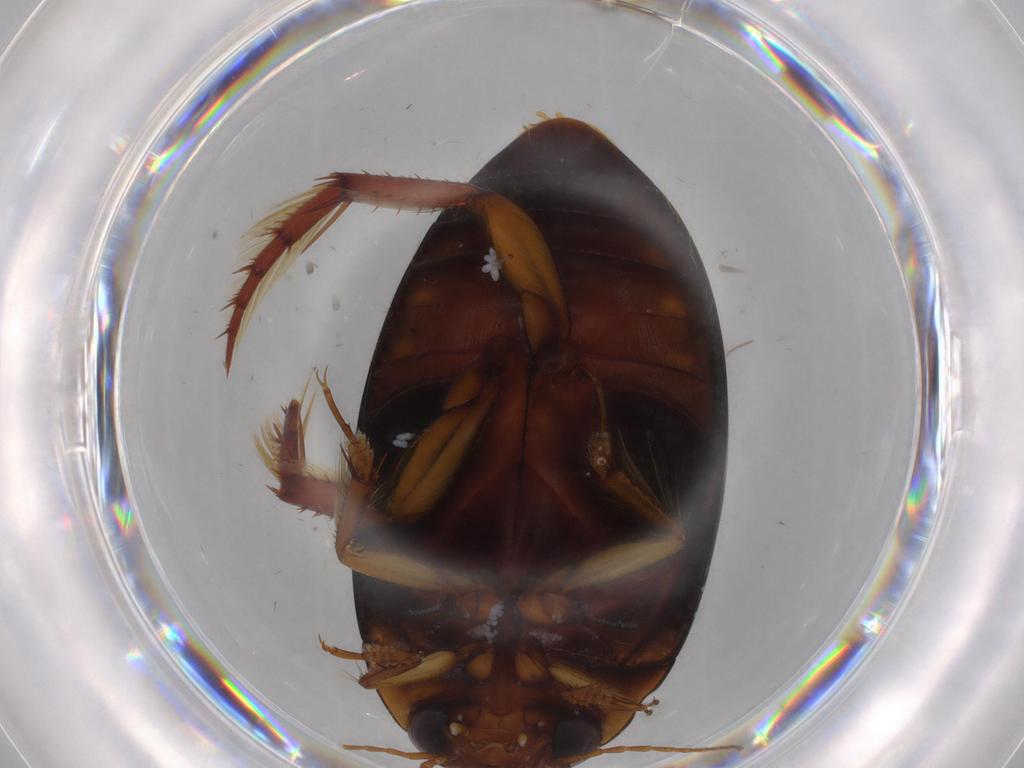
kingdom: Animalia
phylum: Arthropoda
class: Insecta
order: Coleoptera
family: Dytiscidae
